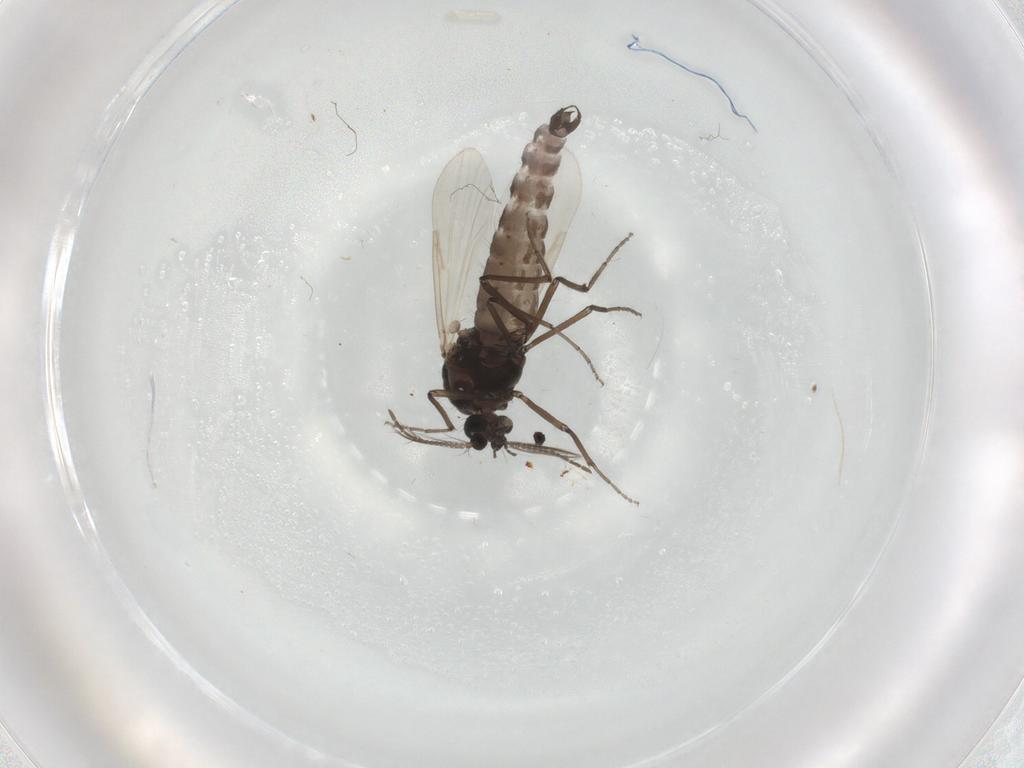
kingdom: Animalia
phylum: Arthropoda
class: Insecta
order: Diptera
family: Ceratopogonidae
